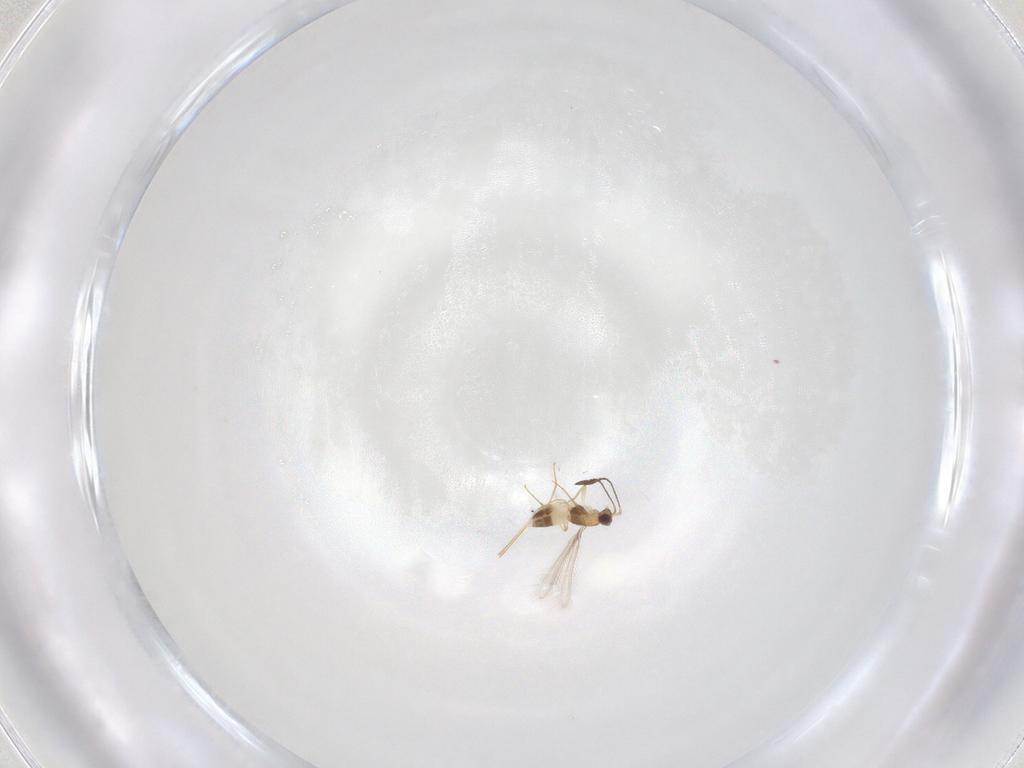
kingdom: Animalia
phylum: Arthropoda
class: Insecta
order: Hymenoptera
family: Mymaridae
